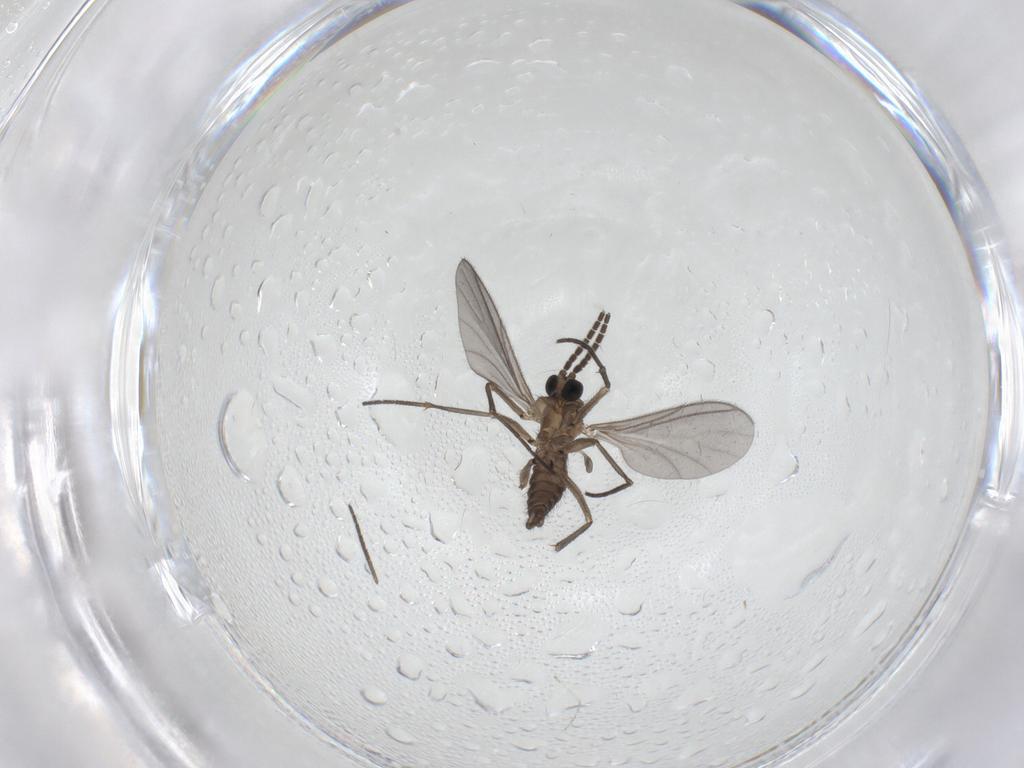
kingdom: Animalia
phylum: Arthropoda
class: Insecta
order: Diptera
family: Sciaridae
